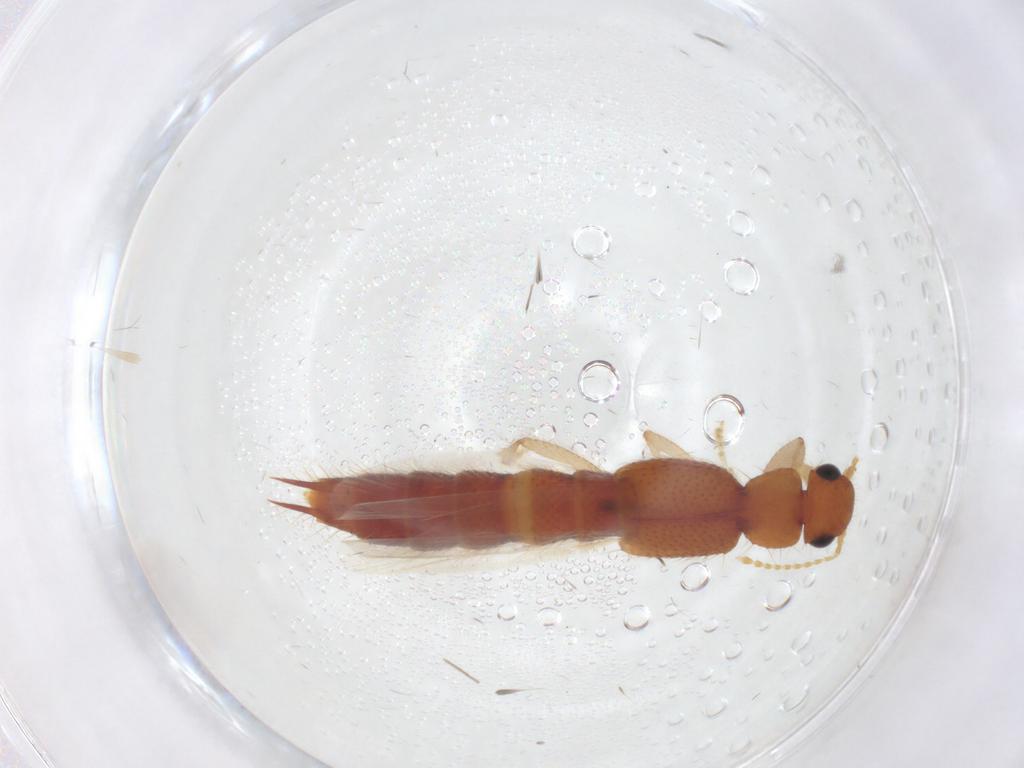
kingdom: Animalia
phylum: Arthropoda
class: Insecta
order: Coleoptera
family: Staphylinidae
